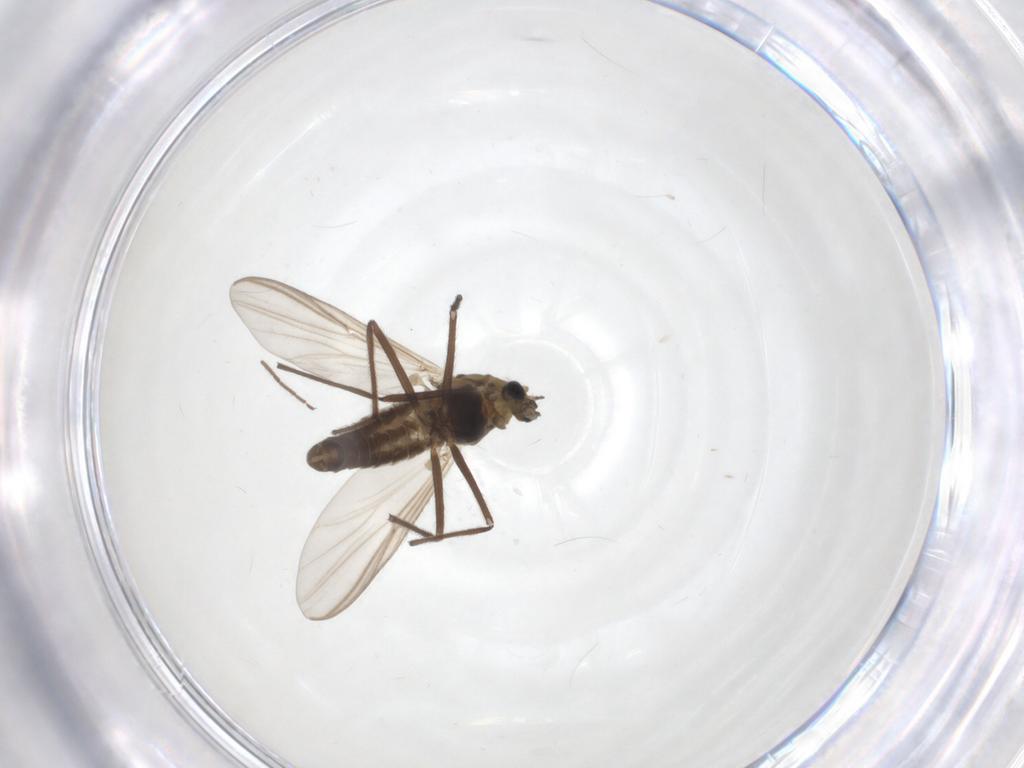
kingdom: Animalia
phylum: Arthropoda
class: Insecta
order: Diptera
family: Chironomidae
